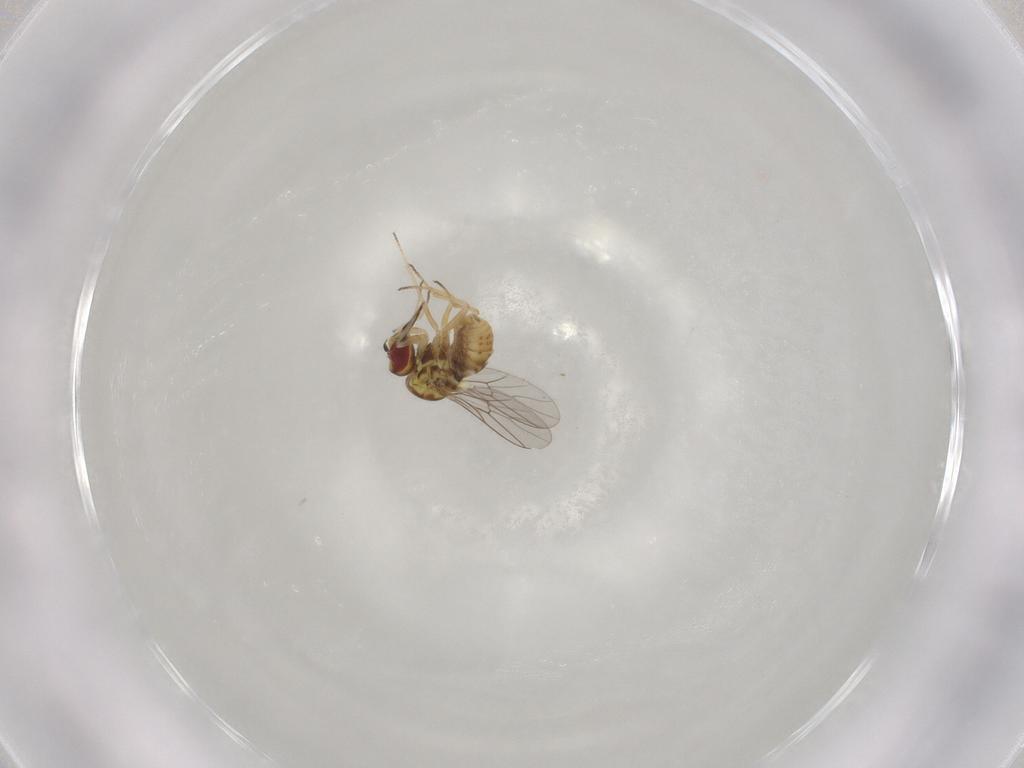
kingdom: Animalia
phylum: Arthropoda
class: Insecta
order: Diptera
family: Mythicomyiidae
